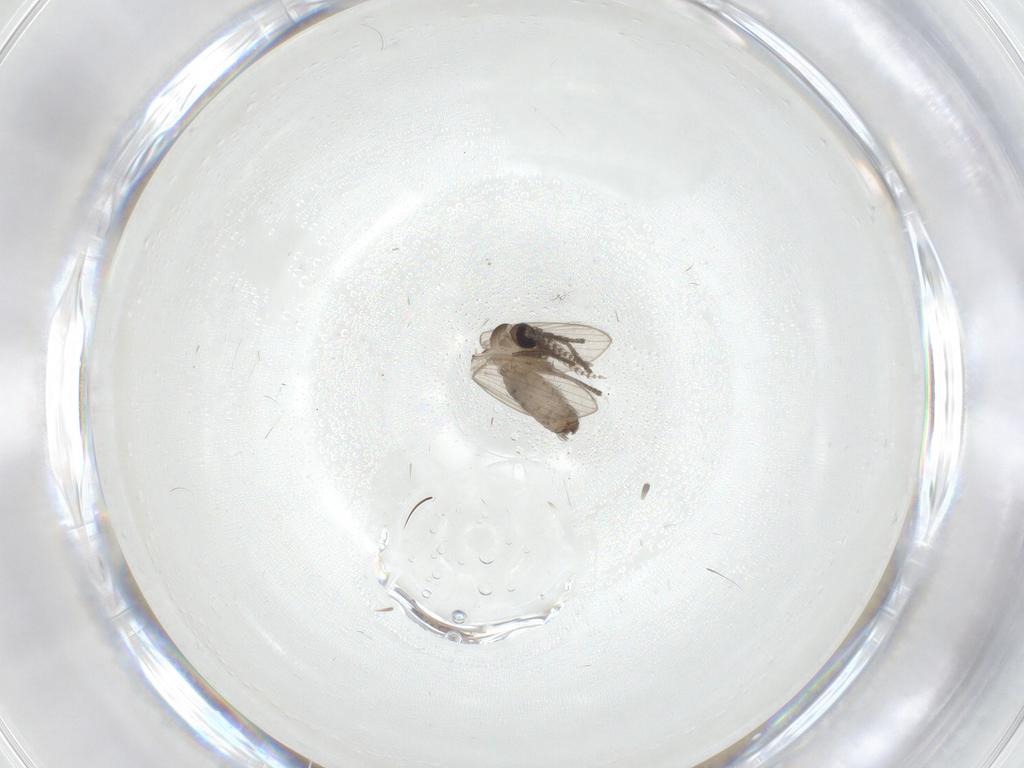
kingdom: Animalia
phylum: Arthropoda
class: Insecta
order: Diptera
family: Psychodidae
